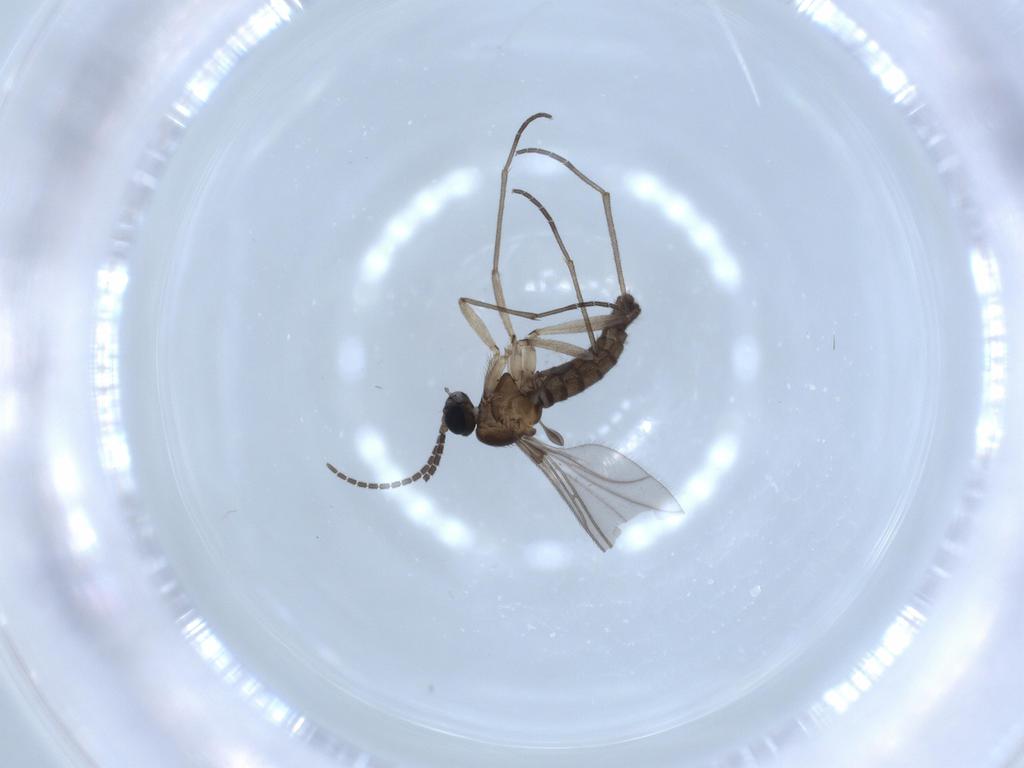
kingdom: Animalia
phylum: Arthropoda
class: Insecta
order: Diptera
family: Sciaridae
